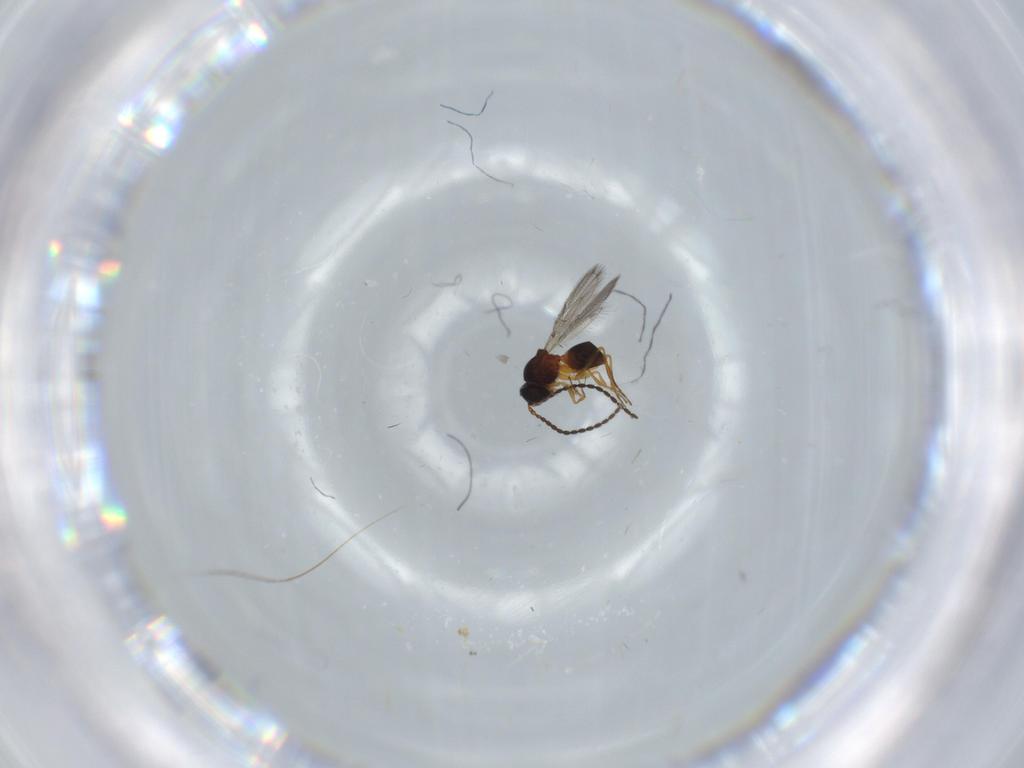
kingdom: Animalia
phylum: Arthropoda
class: Insecta
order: Hymenoptera
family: Figitidae
